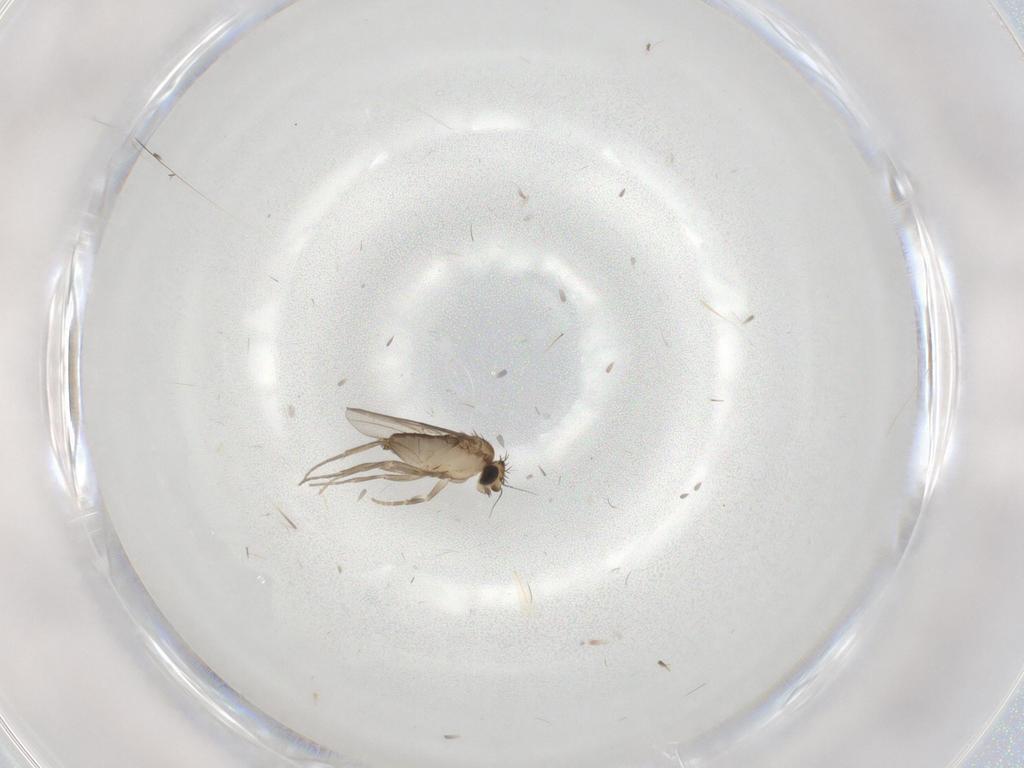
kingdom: Animalia
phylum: Arthropoda
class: Insecta
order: Diptera
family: Phoridae
